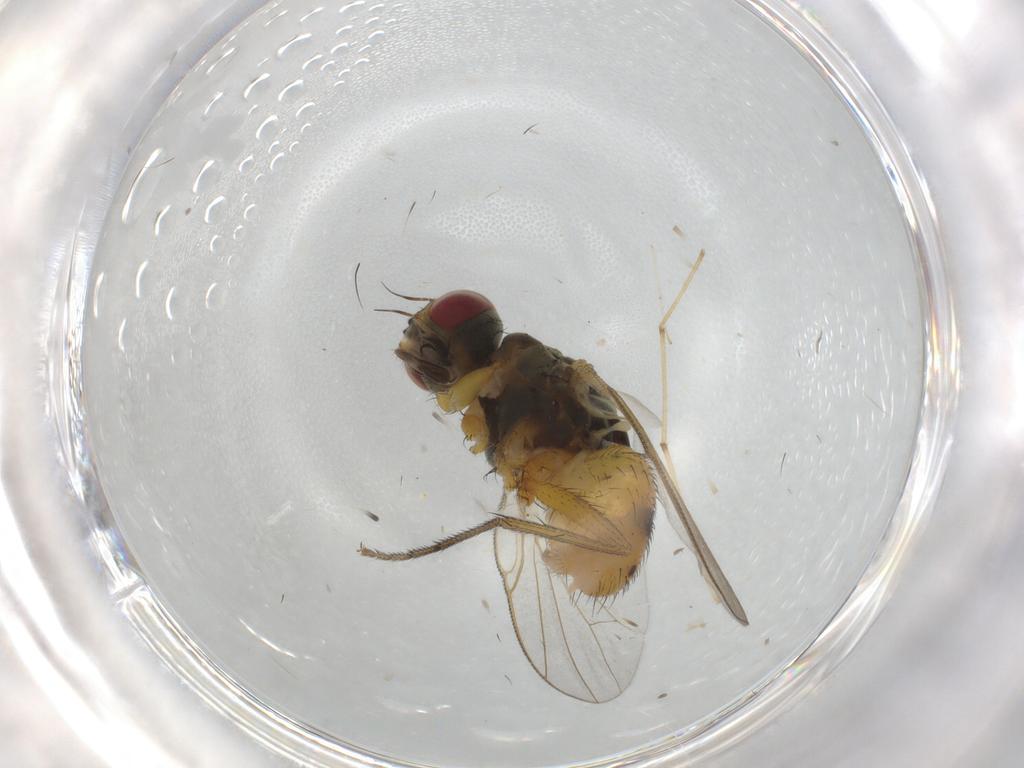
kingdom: Animalia
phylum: Arthropoda
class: Insecta
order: Diptera
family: Muscidae
